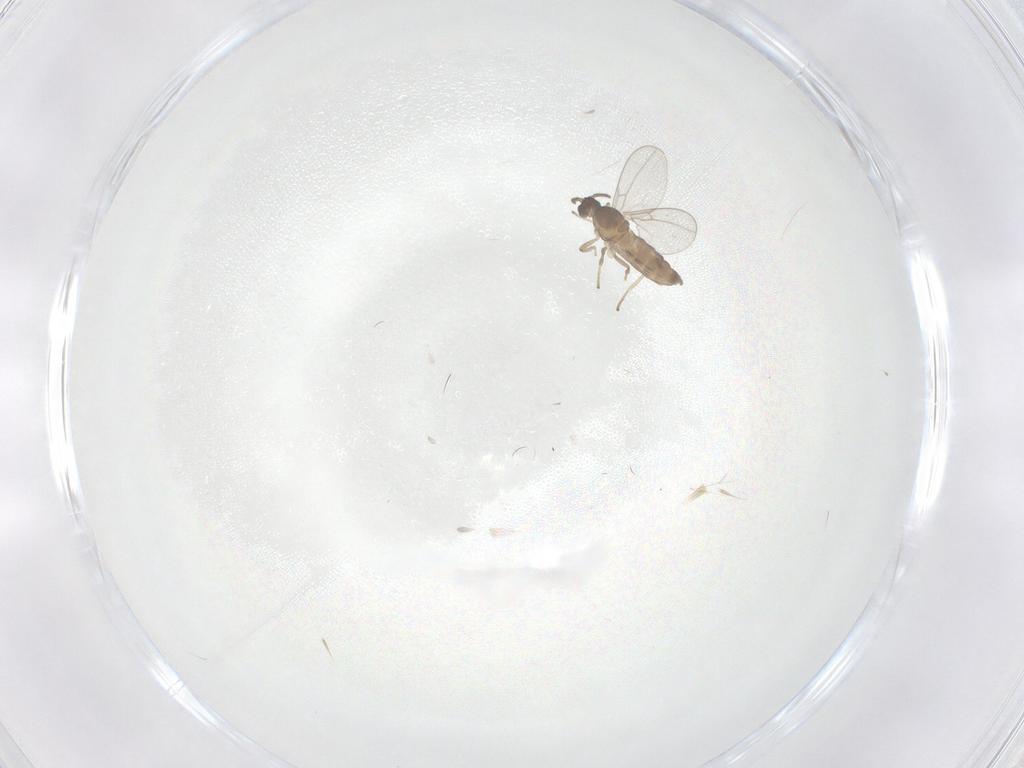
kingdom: Animalia
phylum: Arthropoda
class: Insecta
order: Diptera
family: Cecidomyiidae
